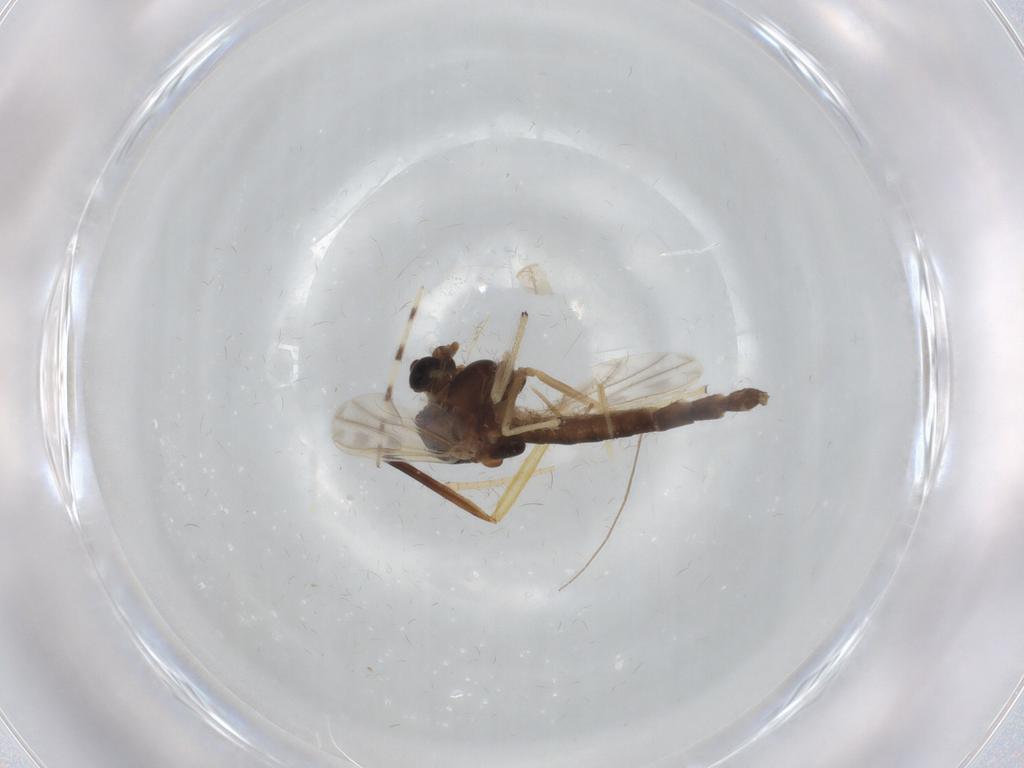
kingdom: Animalia
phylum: Arthropoda
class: Insecta
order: Diptera
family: Chironomidae
